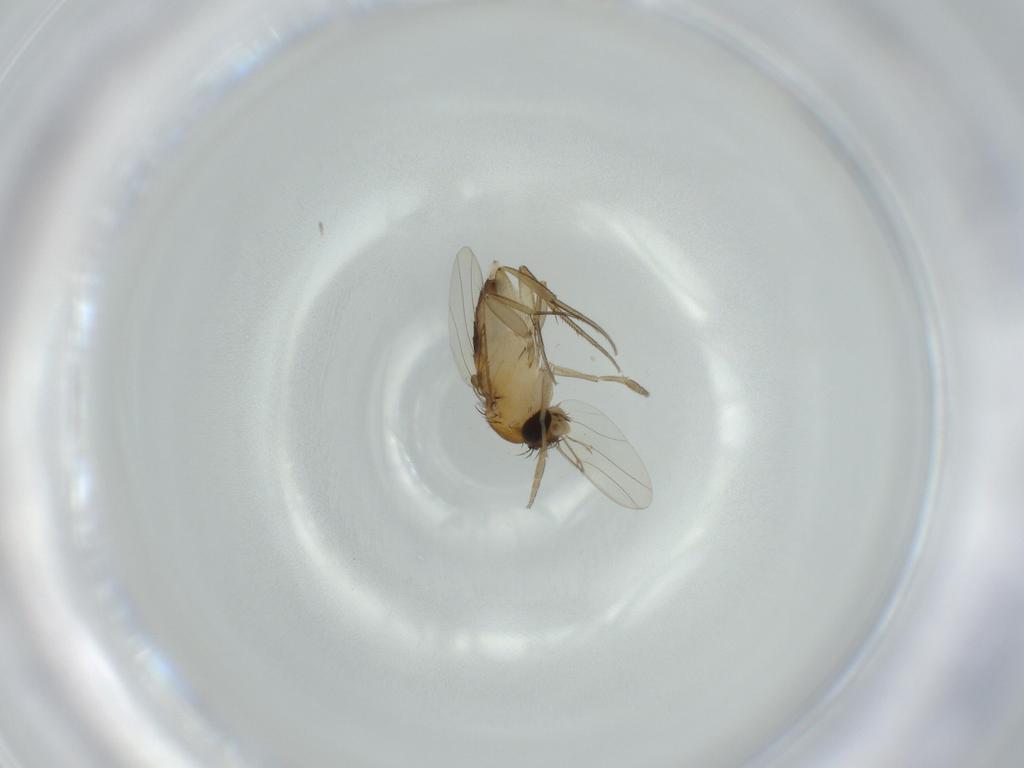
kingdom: Animalia
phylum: Arthropoda
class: Insecta
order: Diptera
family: Phoridae
